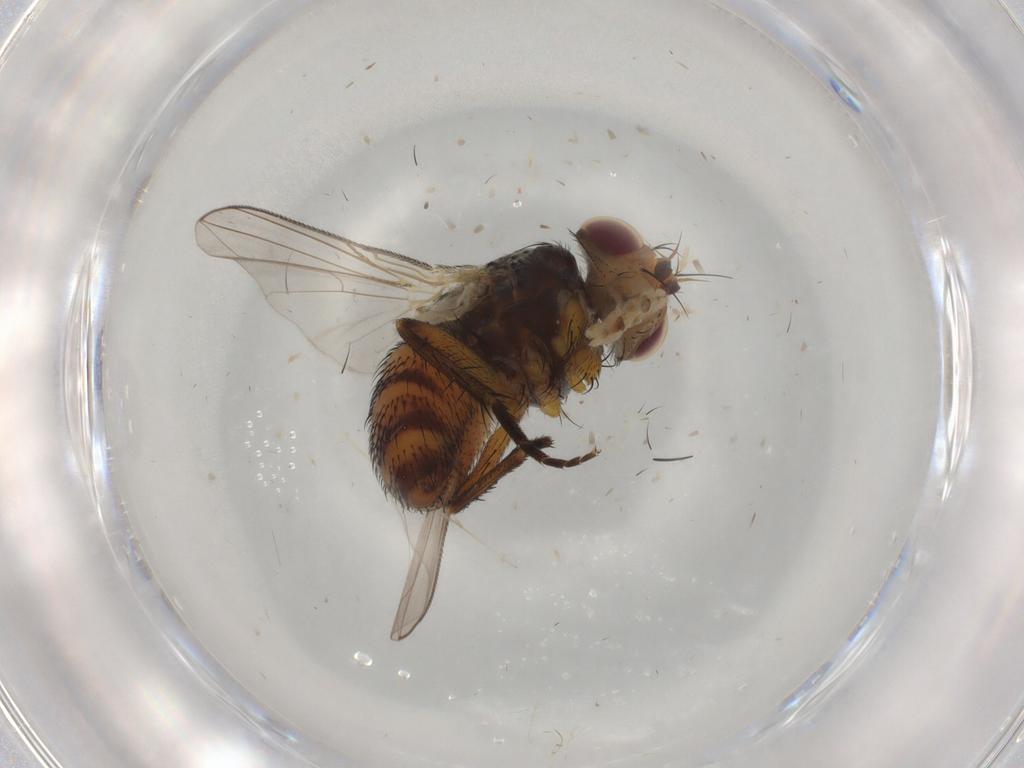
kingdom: Animalia
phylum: Arthropoda
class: Insecta
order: Diptera
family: Tachinidae
